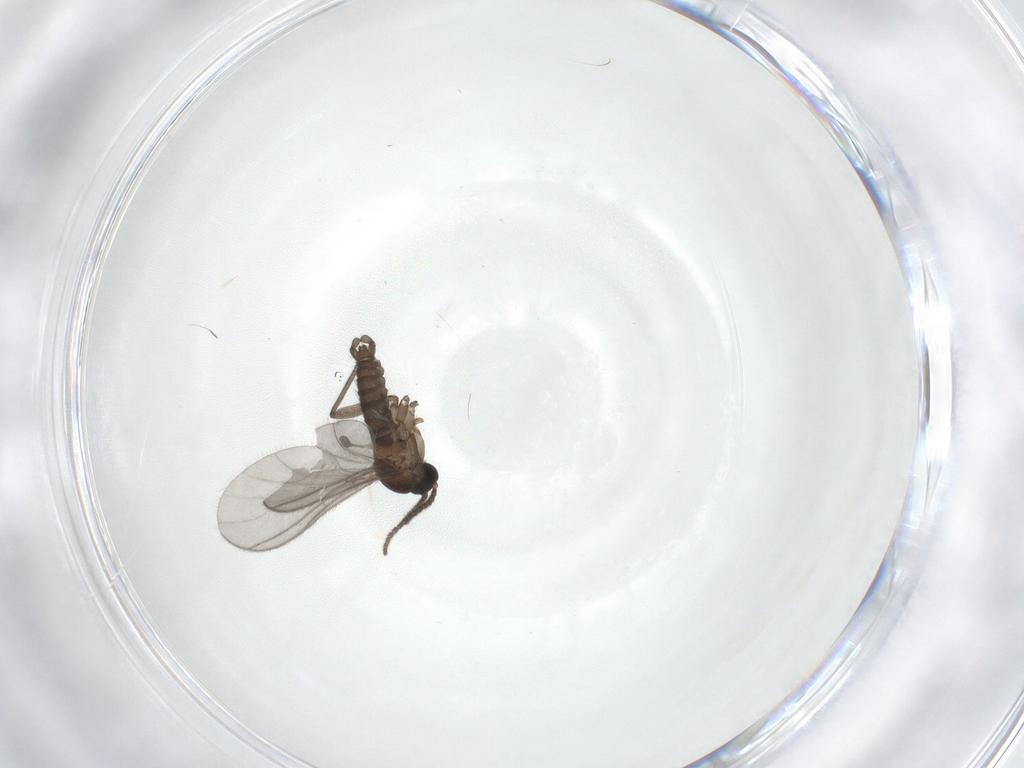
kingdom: Animalia
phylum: Arthropoda
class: Insecta
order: Diptera
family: Sciaridae
